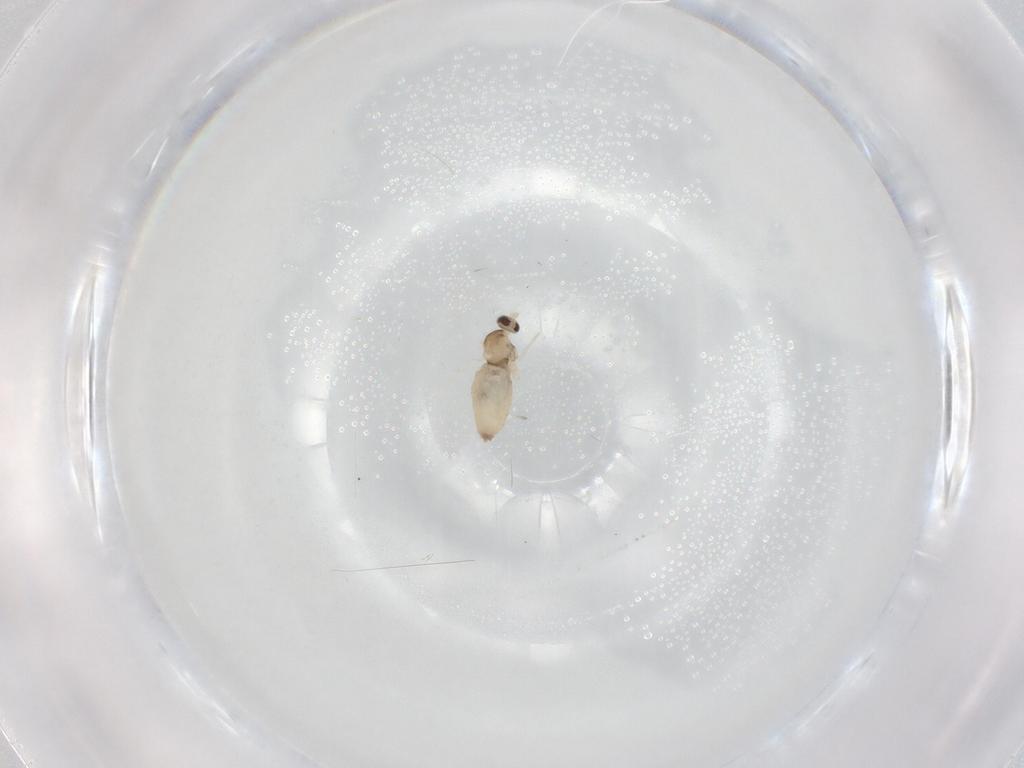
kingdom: Animalia
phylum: Arthropoda
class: Insecta
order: Diptera
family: Cecidomyiidae
